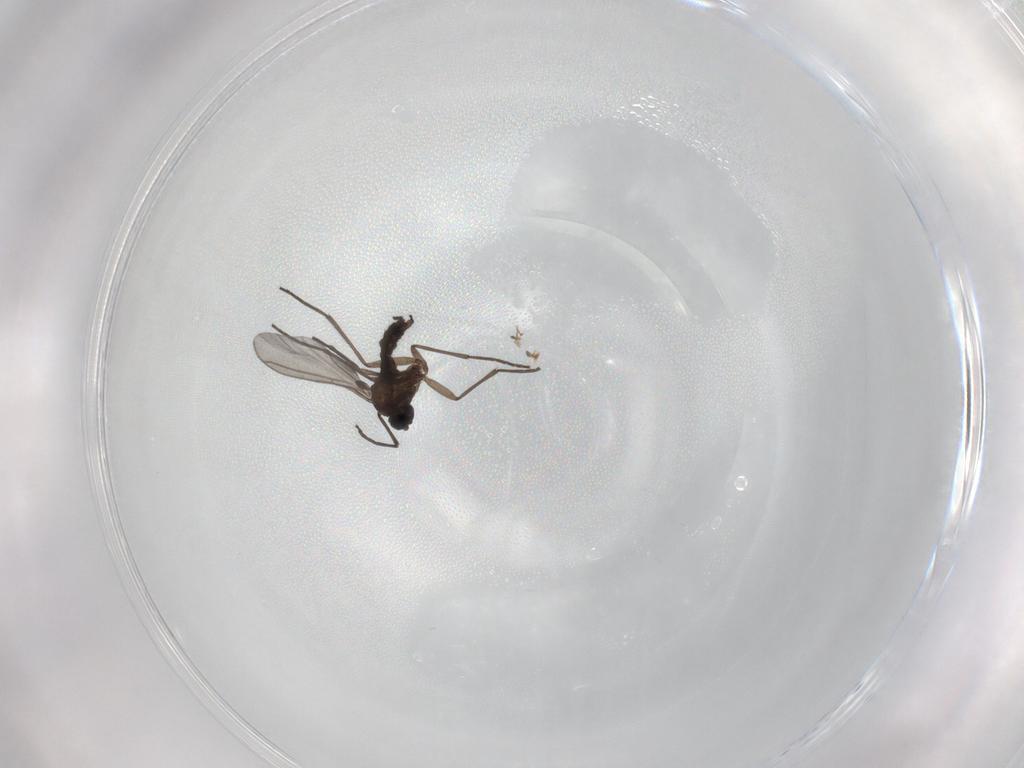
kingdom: Animalia
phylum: Arthropoda
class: Insecta
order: Diptera
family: Sciaridae
